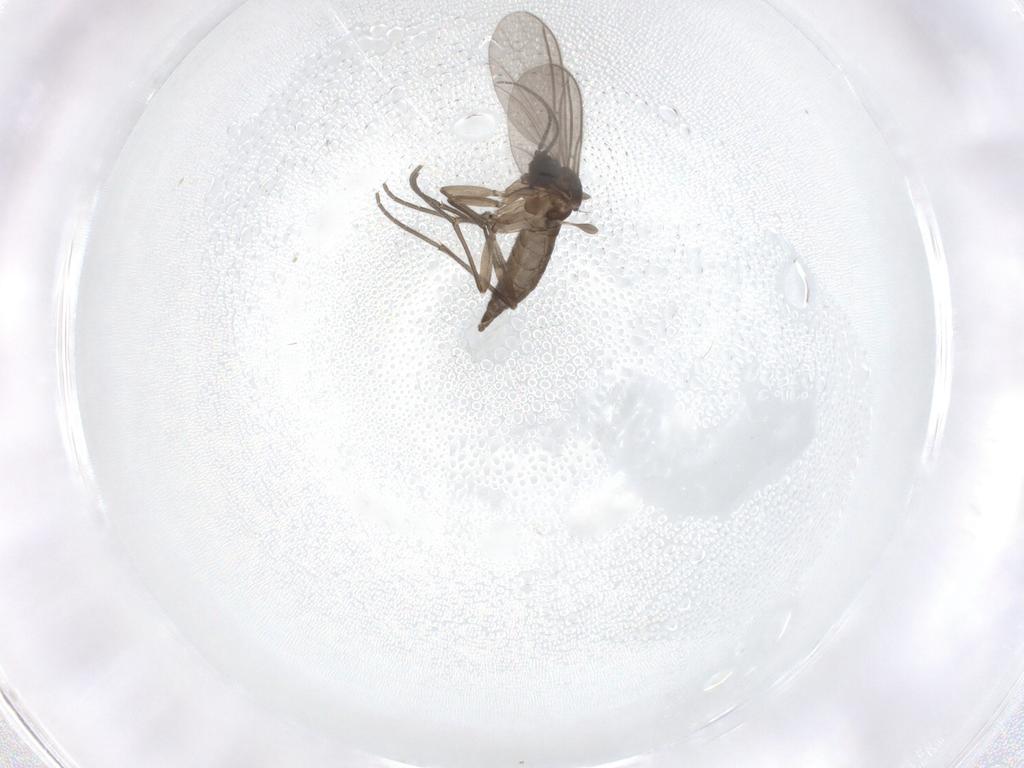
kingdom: Animalia
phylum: Arthropoda
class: Insecta
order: Diptera
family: Sciaridae
